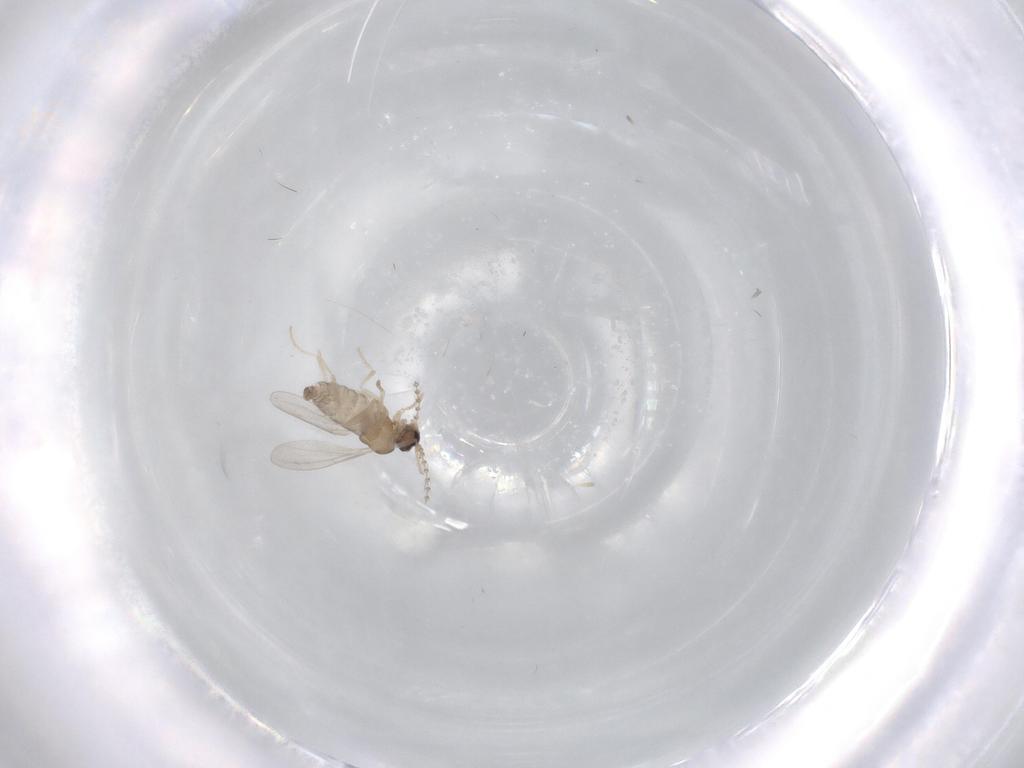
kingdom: Animalia
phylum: Arthropoda
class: Insecta
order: Diptera
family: Cecidomyiidae
